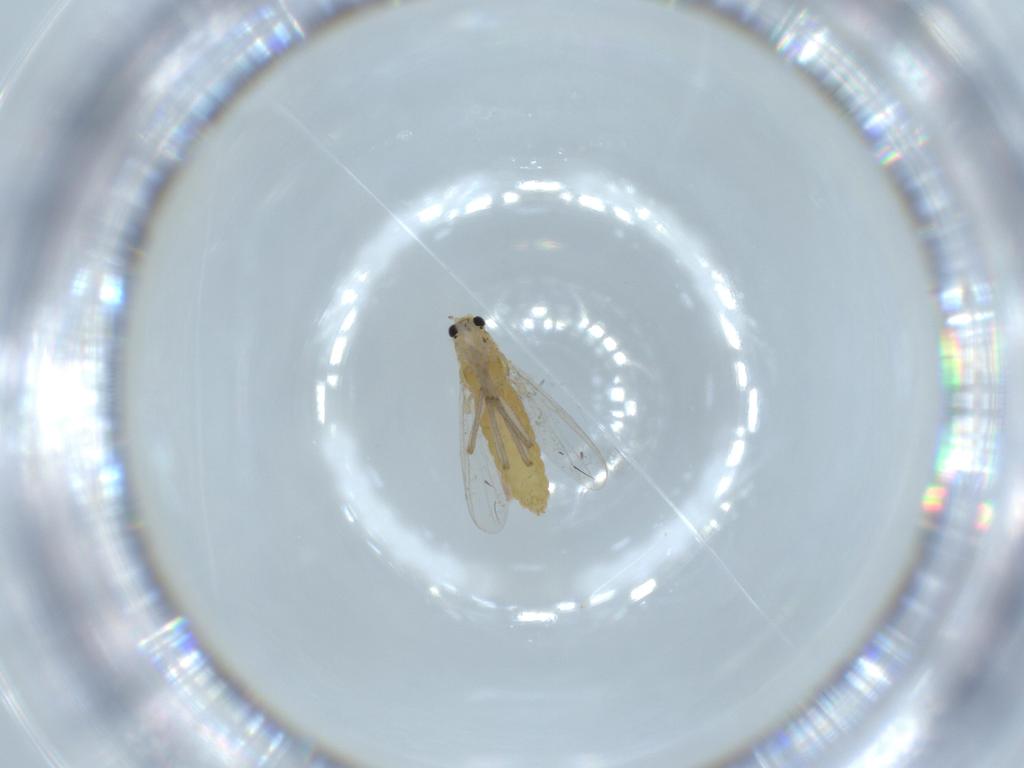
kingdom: Animalia
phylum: Arthropoda
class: Insecta
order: Diptera
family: Chironomidae
